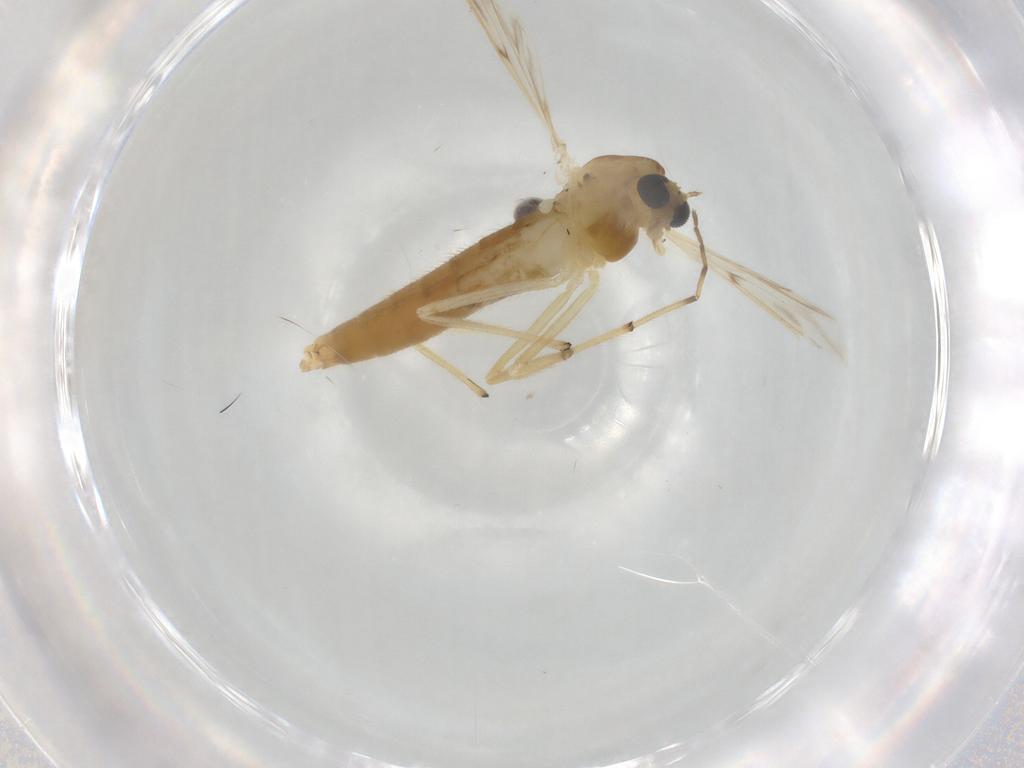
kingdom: Animalia
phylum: Arthropoda
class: Insecta
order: Diptera
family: Chironomidae
